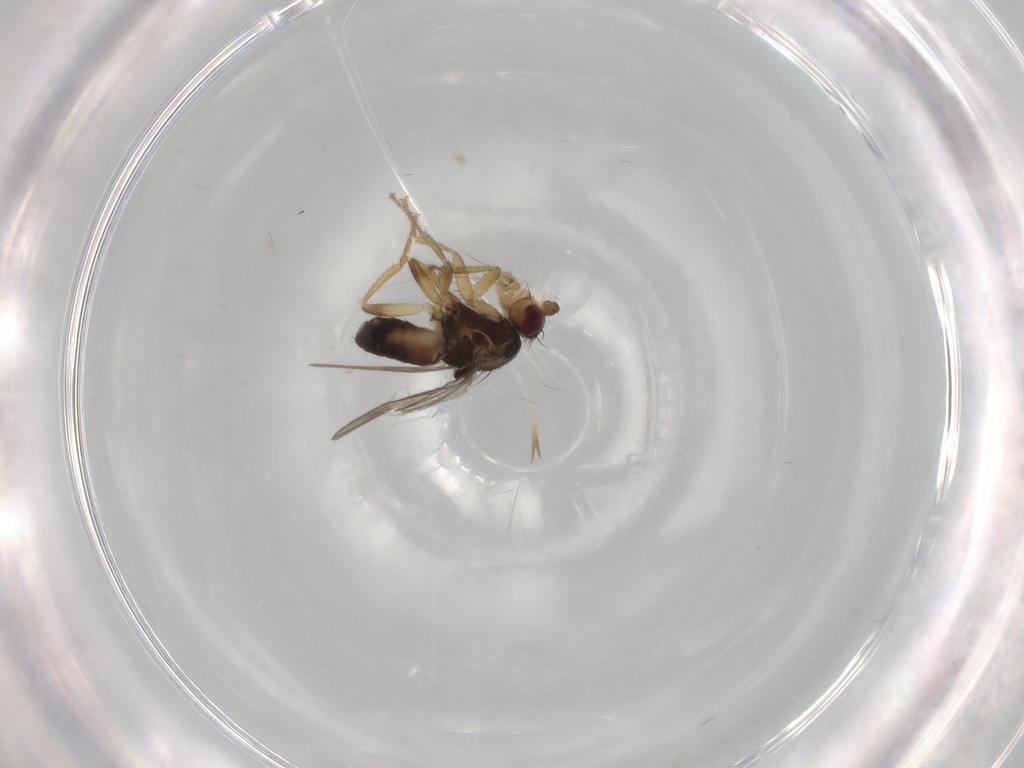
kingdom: Animalia
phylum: Arthropoda
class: Insecta
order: Diptera
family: Sphaeroceridae
